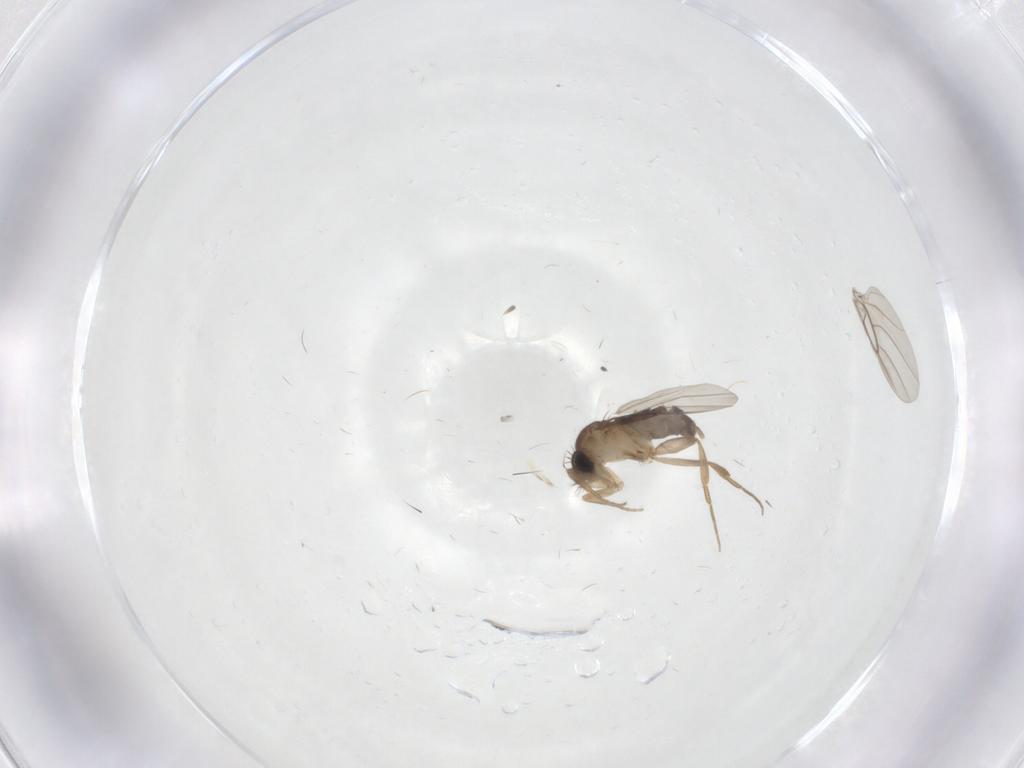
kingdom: Animalia
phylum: Arthropoda
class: Insecta
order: Diptera
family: Phoridae
